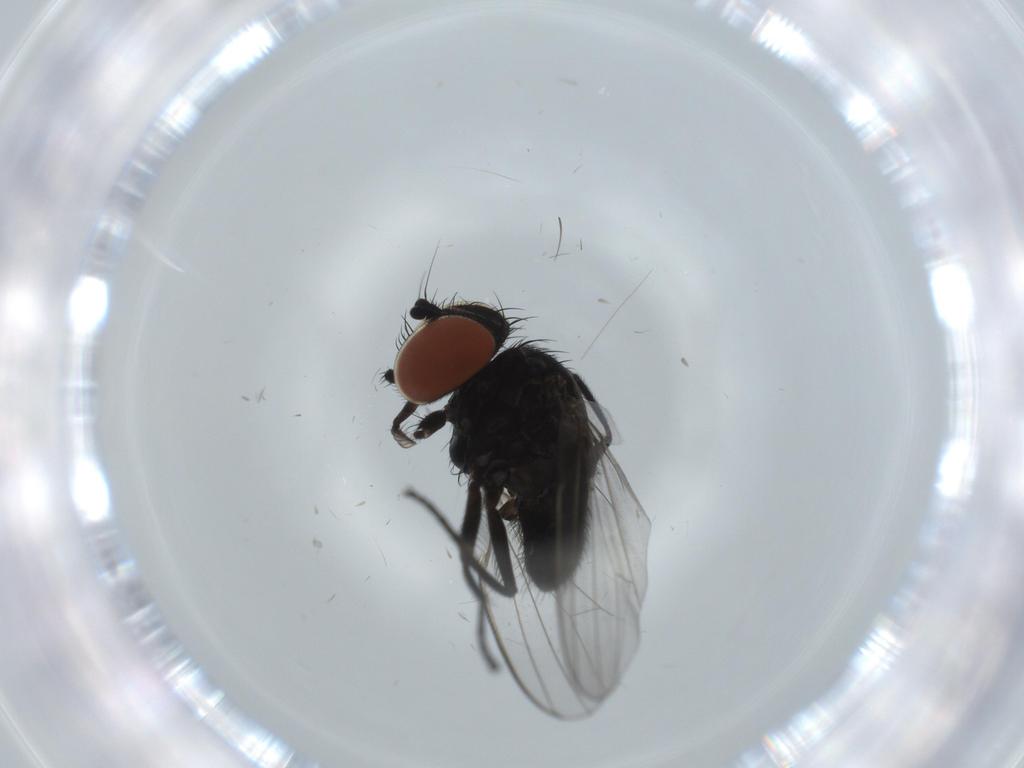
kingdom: Animalia
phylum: Arthropoda
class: Insecta
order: Diptera
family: Milichiidae
